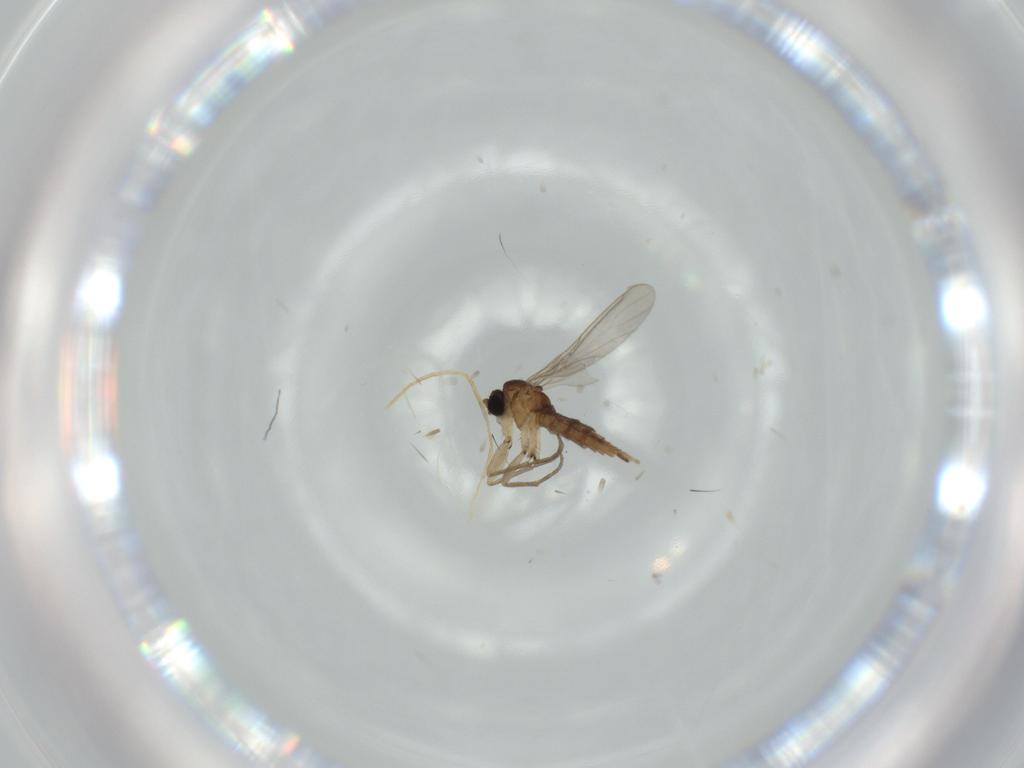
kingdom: Animalia
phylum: Arthropoda
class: Insecta
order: Diptera
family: Sciaridae
